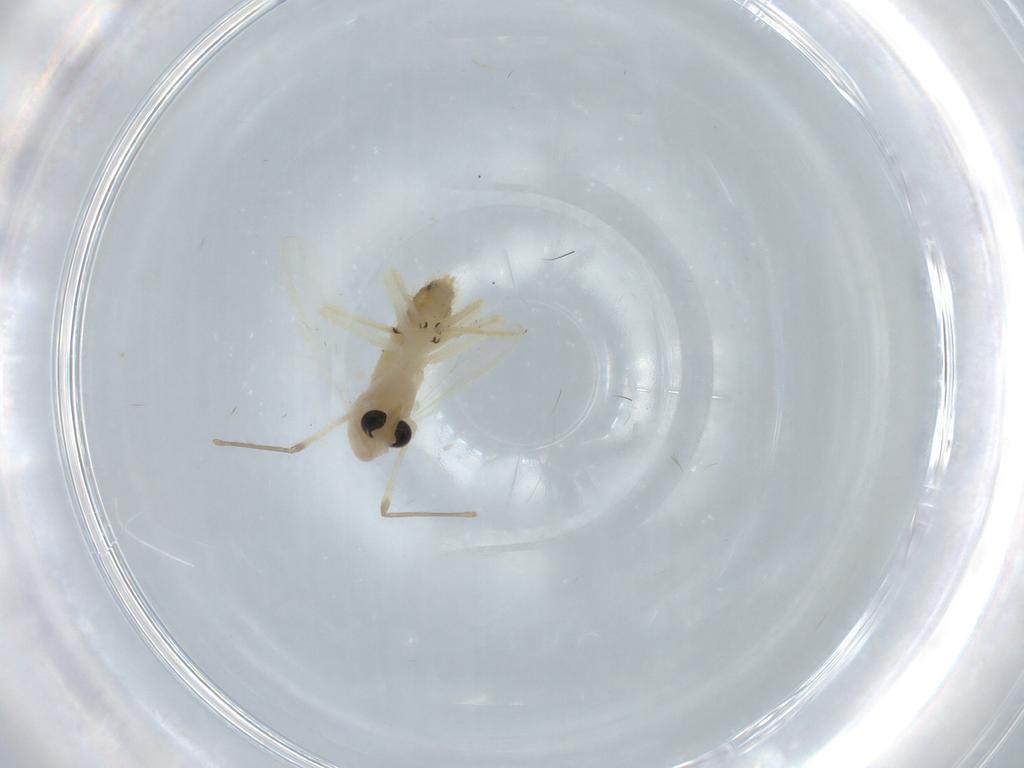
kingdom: Animalia
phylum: Arthropoda
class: Insecta
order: Diptera
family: Chironomidae
